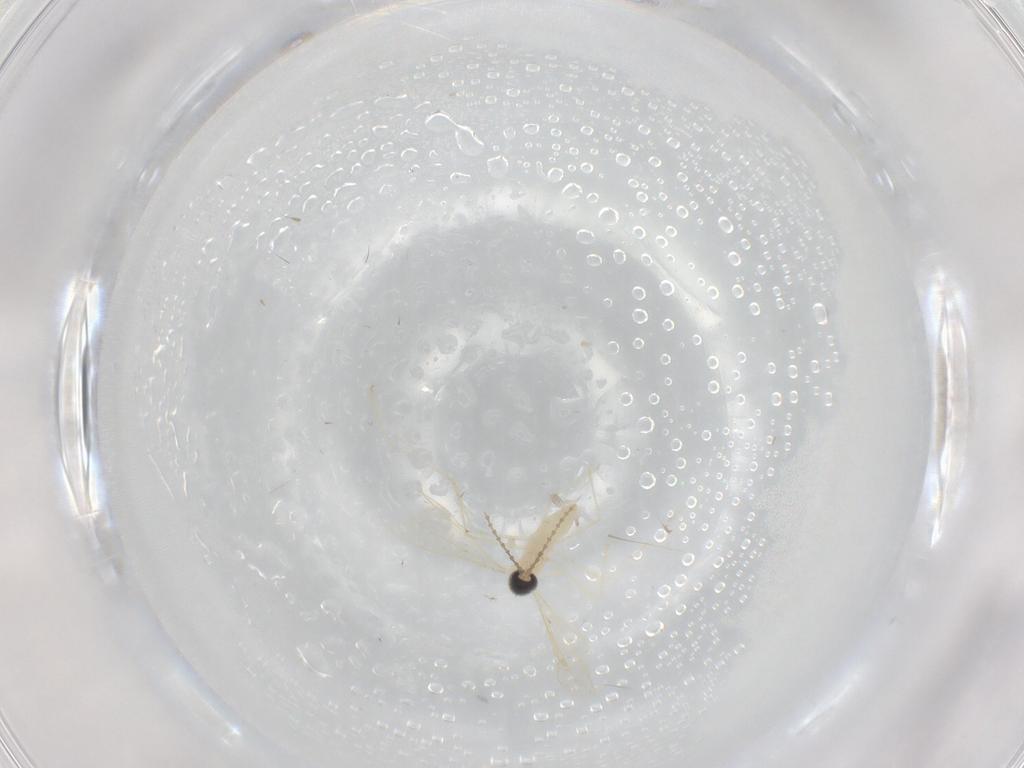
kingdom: Animalia
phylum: Arthropoda
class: Insecta
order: Diptera
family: Cecidomyiidae
